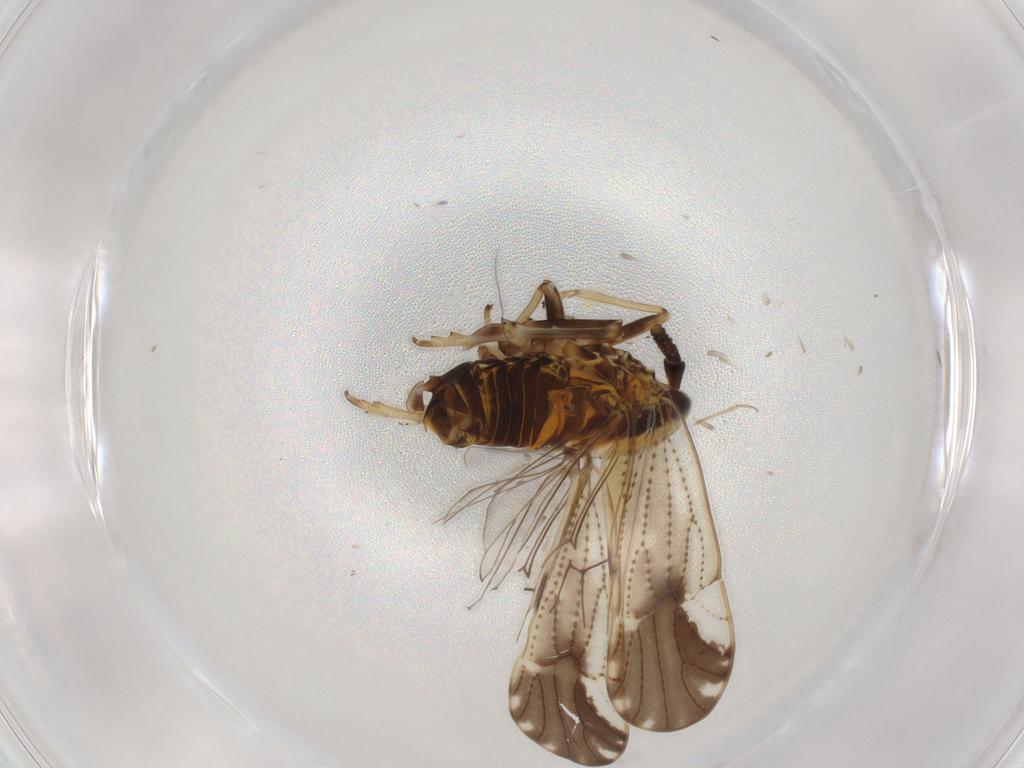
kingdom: Animalia
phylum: Arthropoda
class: Insecta
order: Hemiptera
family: Delphacidae
